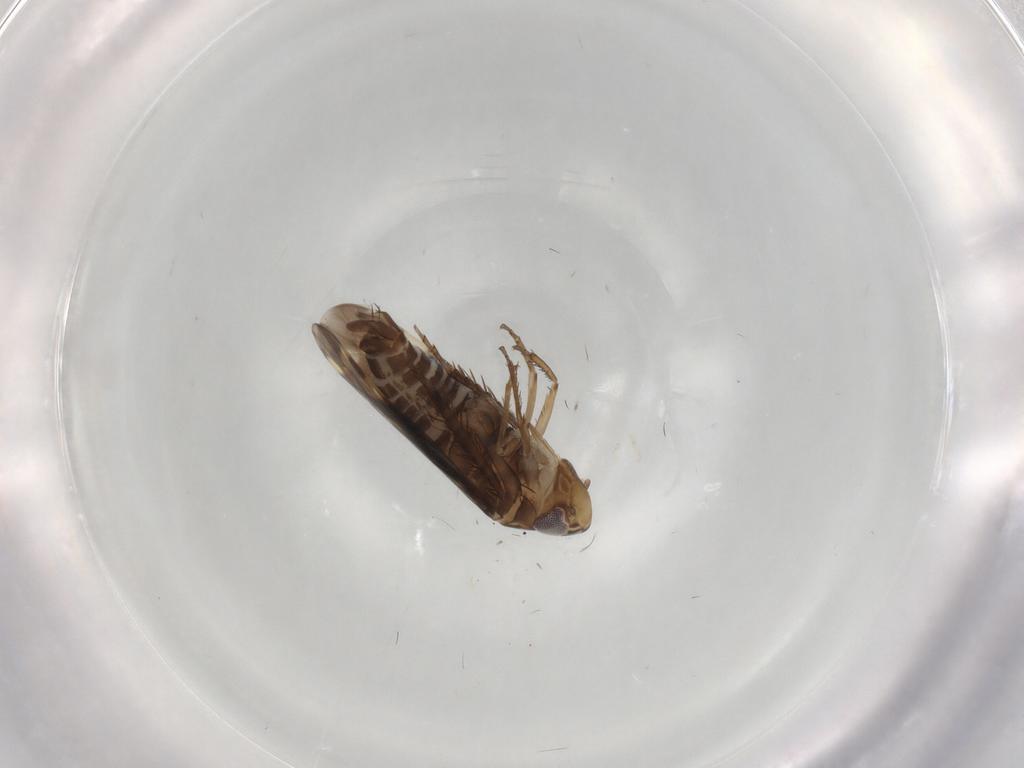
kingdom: Animalia
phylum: Arthropoda
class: Insecta
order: Hemiptera
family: Cicadellidae
